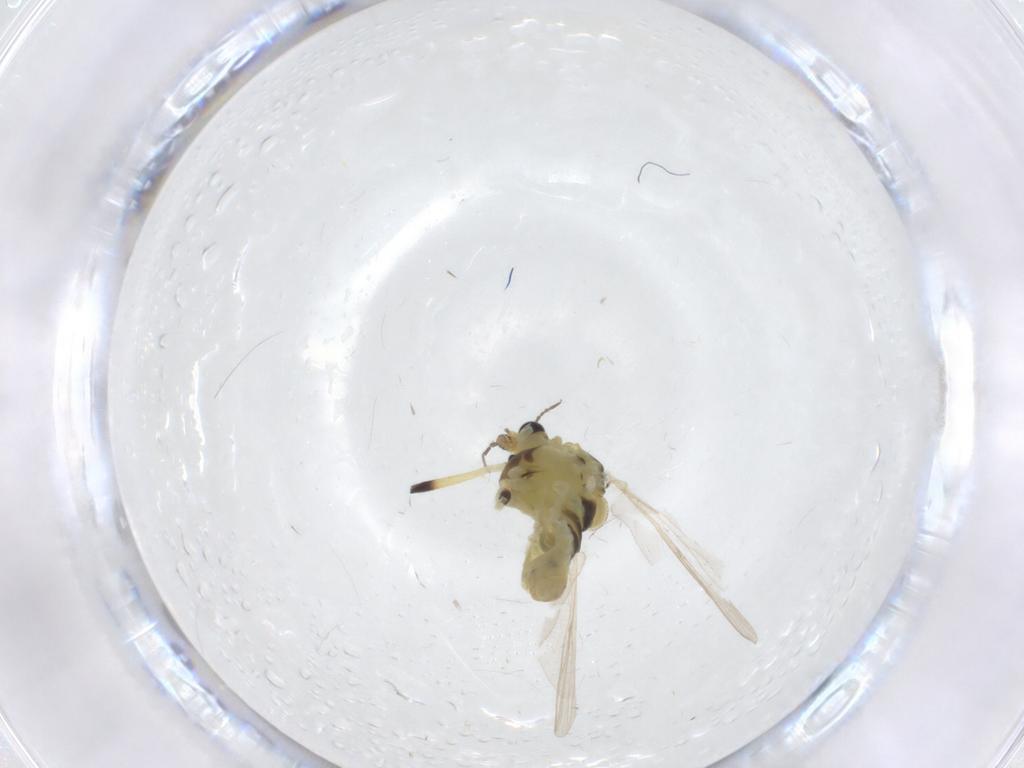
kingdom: Animalia
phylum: Arthropoda
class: Insecta
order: Diptera
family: Chironomidae
